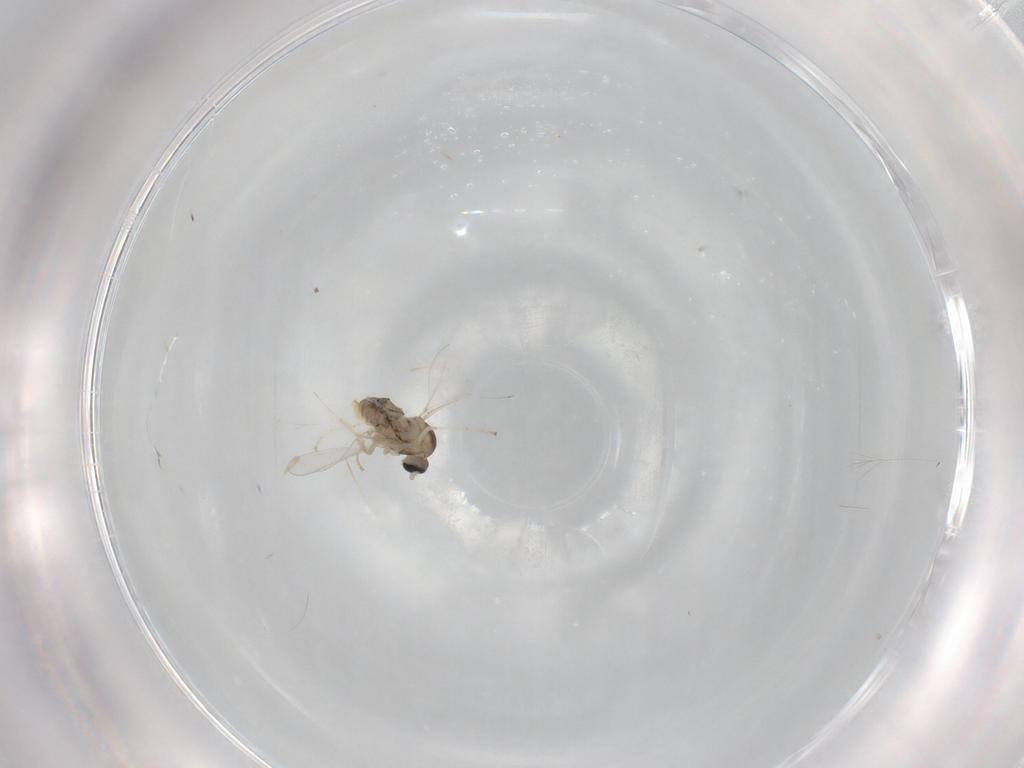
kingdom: Animalia
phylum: Arthropoda
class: Insecta
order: Diptera
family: Cecidomyiidae
